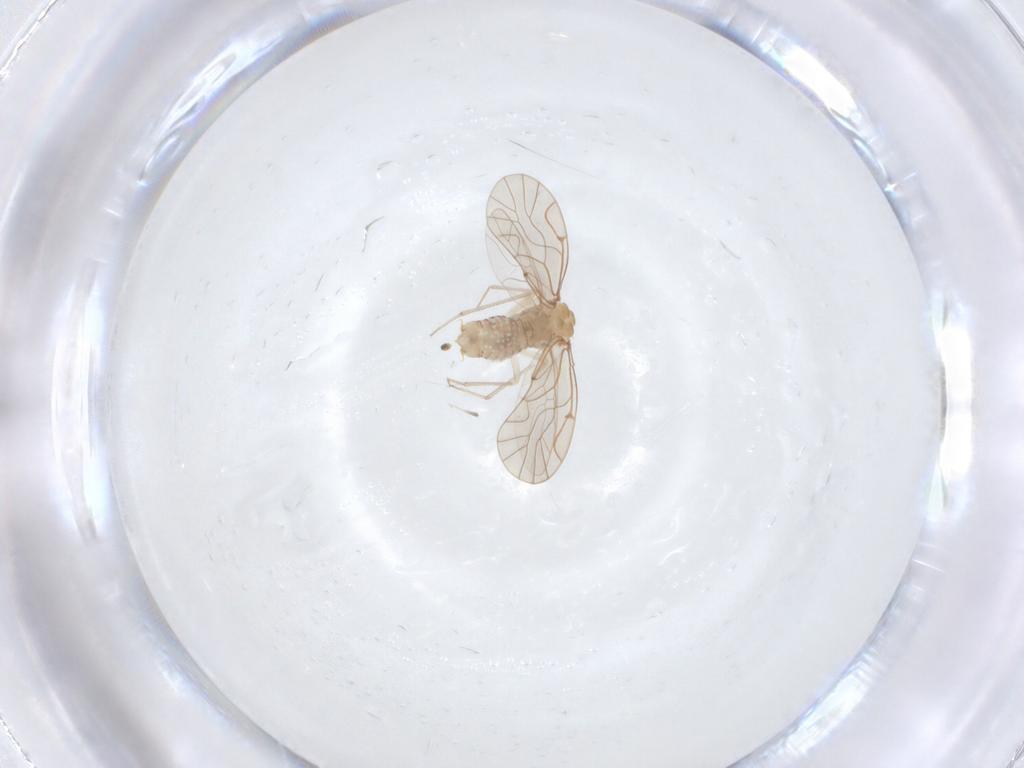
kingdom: Animalia
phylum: Arthropoda
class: Insecta
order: Psocodea
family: Lachesillidae
